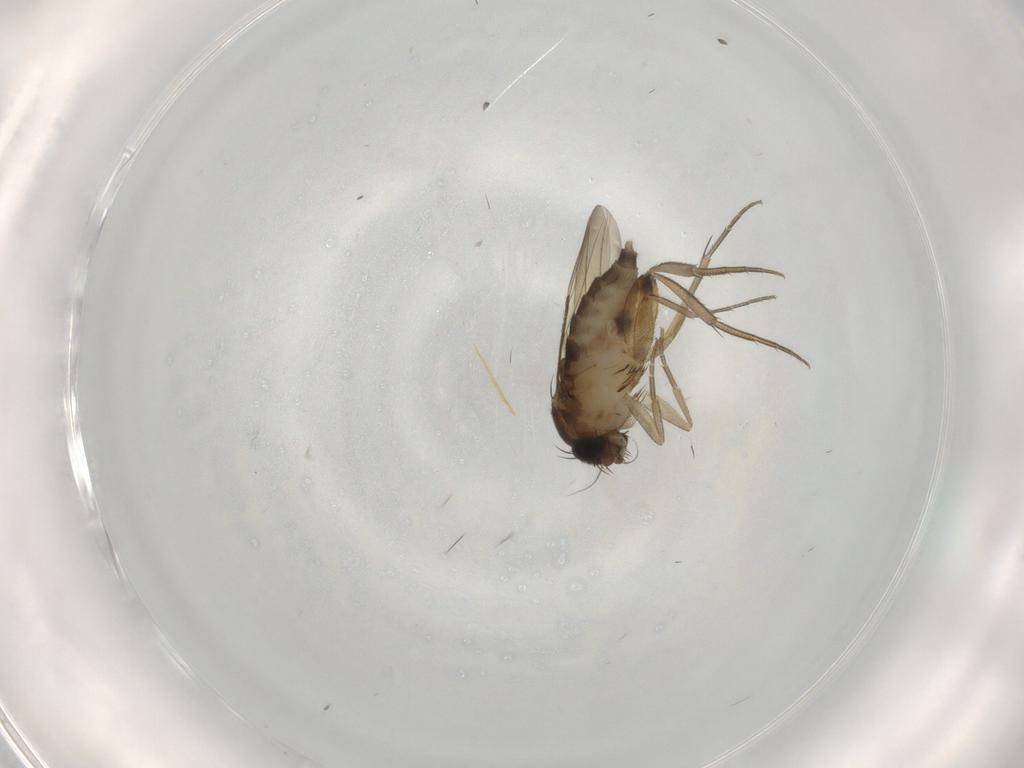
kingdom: Animalia
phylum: Arthropoda
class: Insecta
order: Diptera
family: Phoridae
